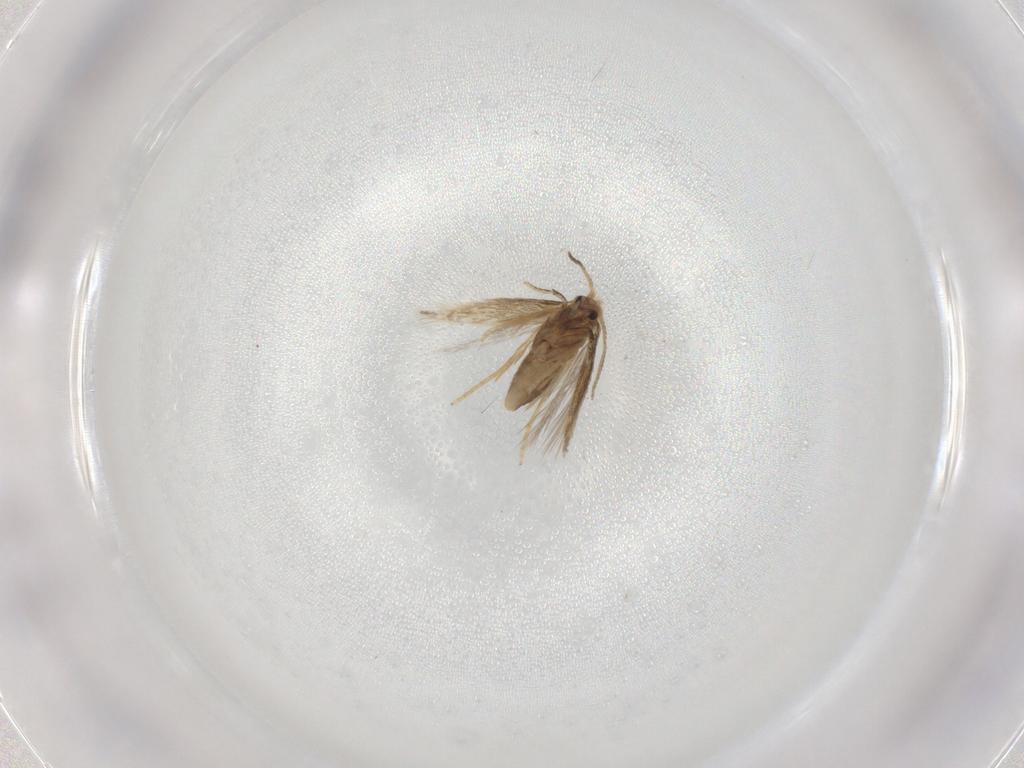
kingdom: Animalia
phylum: Arthropoda
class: Insecta
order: Lepidoptera
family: Nepticulidae
